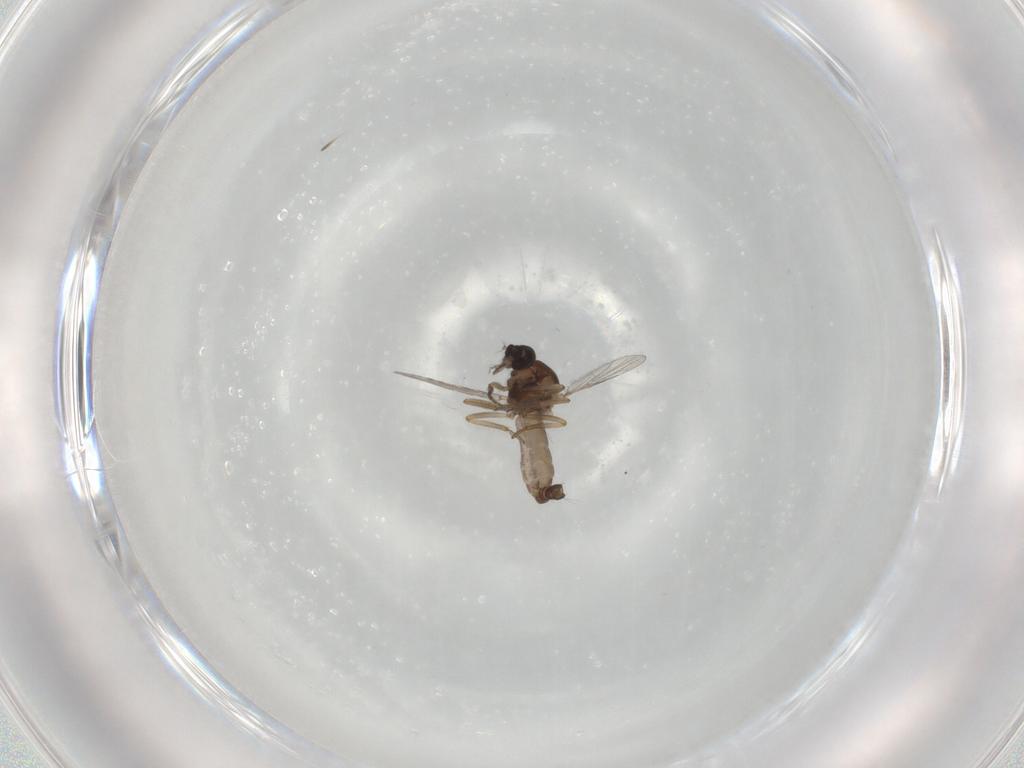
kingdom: Animalia
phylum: Arthropoda
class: Insecta
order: Diptera
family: Ceratopogonidae
